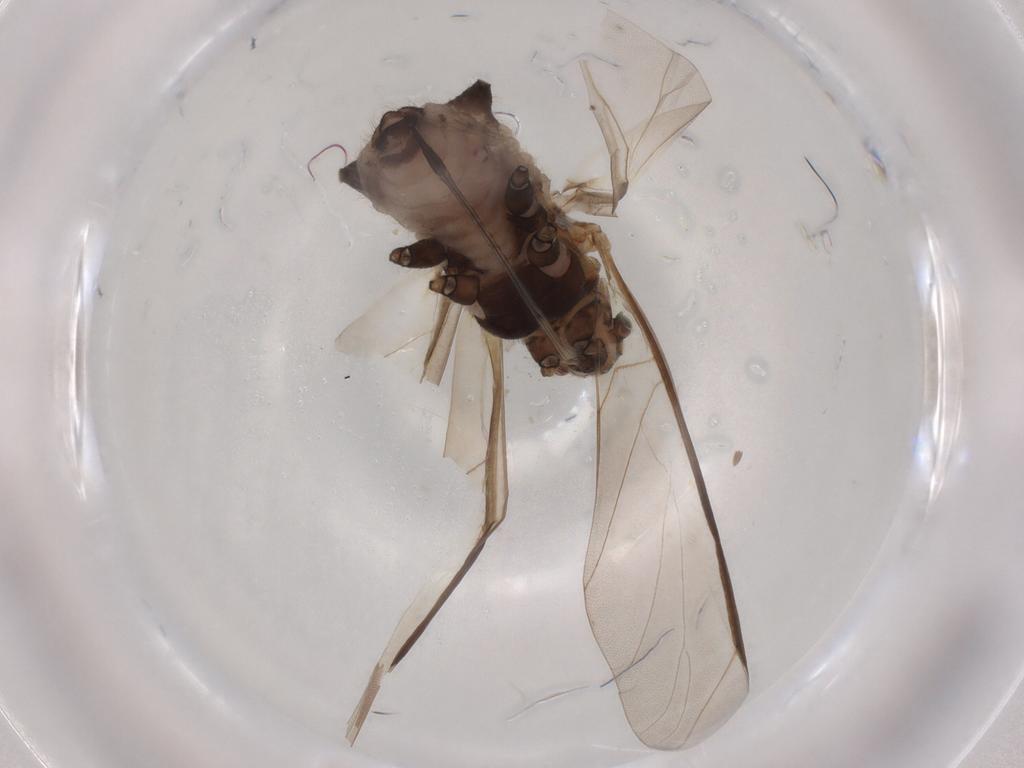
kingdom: Animalia
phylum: Arthropoda
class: Insecta
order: Hemiptera
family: Aphididae
